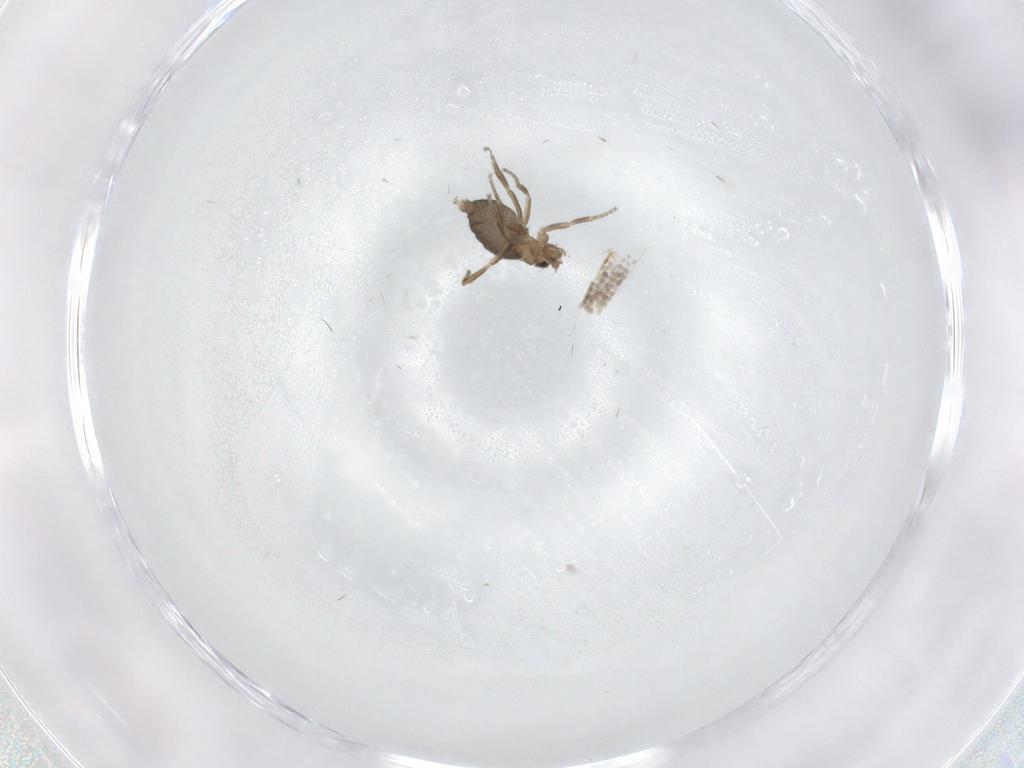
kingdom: Animalia
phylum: Arthropoda
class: Insecta
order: Diptera
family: Phoridae
